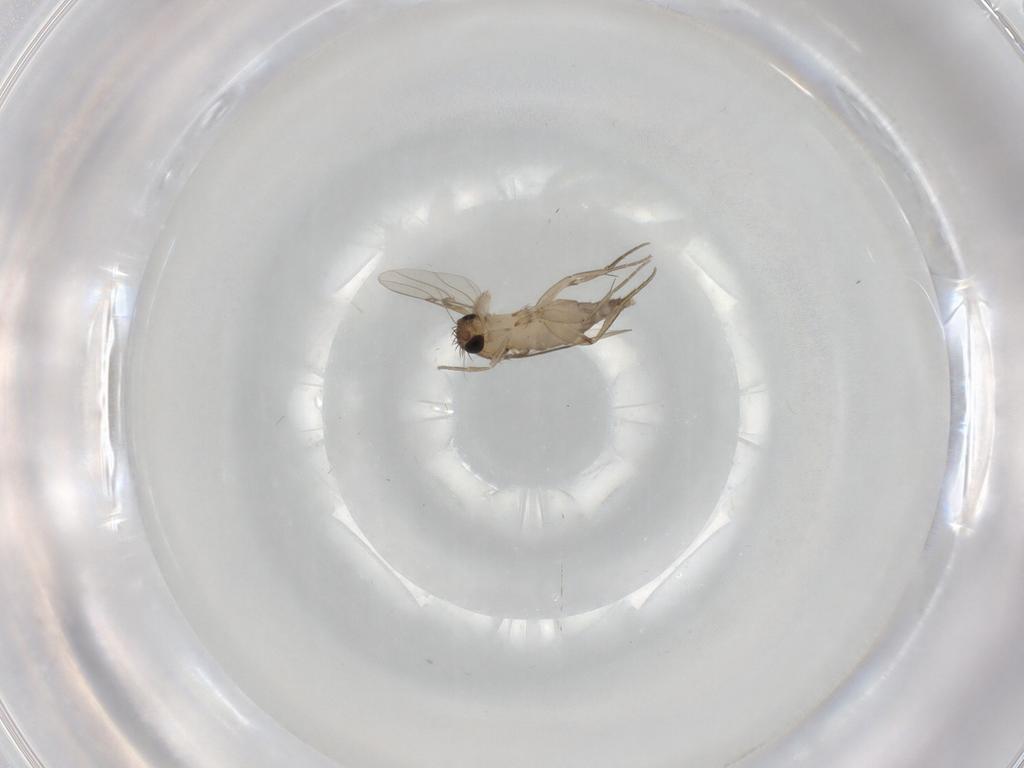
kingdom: Animalia
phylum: Arthropoda
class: Insecta
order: Diptera
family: Phoridae
